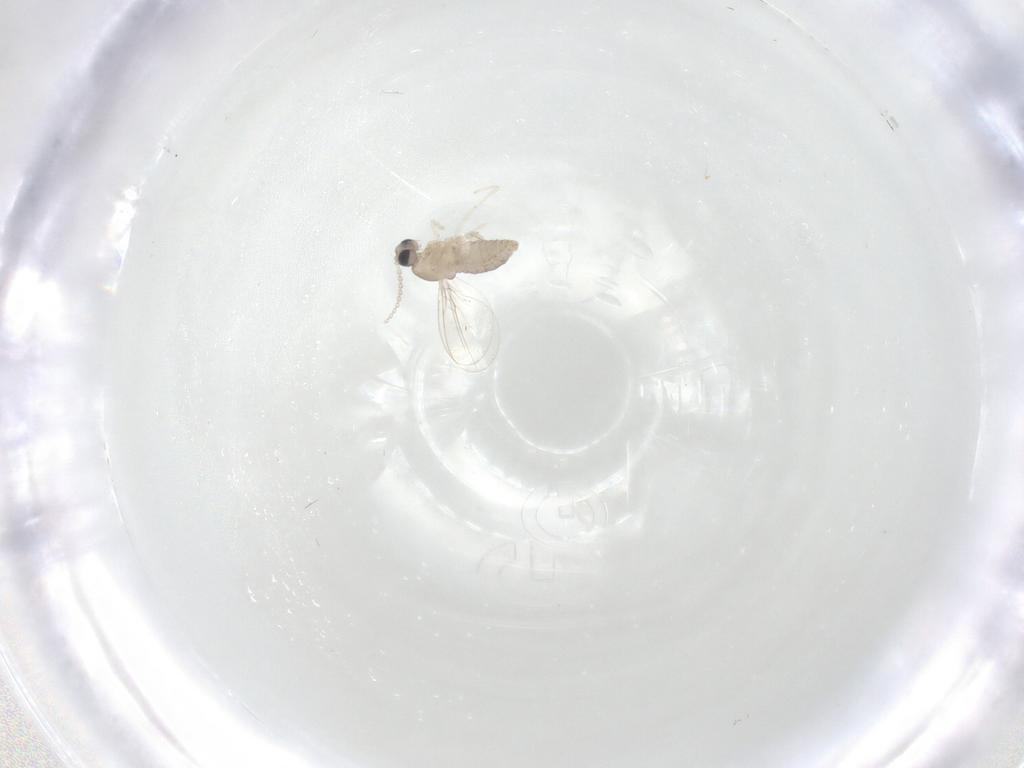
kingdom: Animalia
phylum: Arthropoda
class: Insecta
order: Diptera
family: Cecidomyiidae
